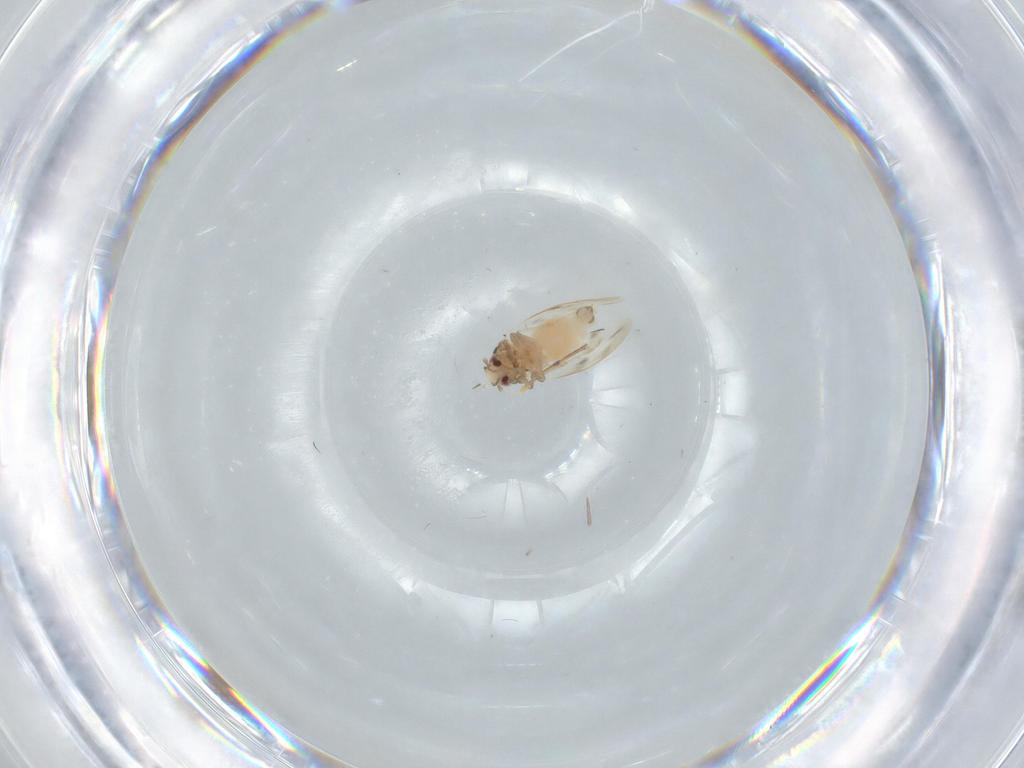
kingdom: Animalia
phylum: Arthropoda
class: Insecta
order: Hemiptera
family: Aleyrodidae
